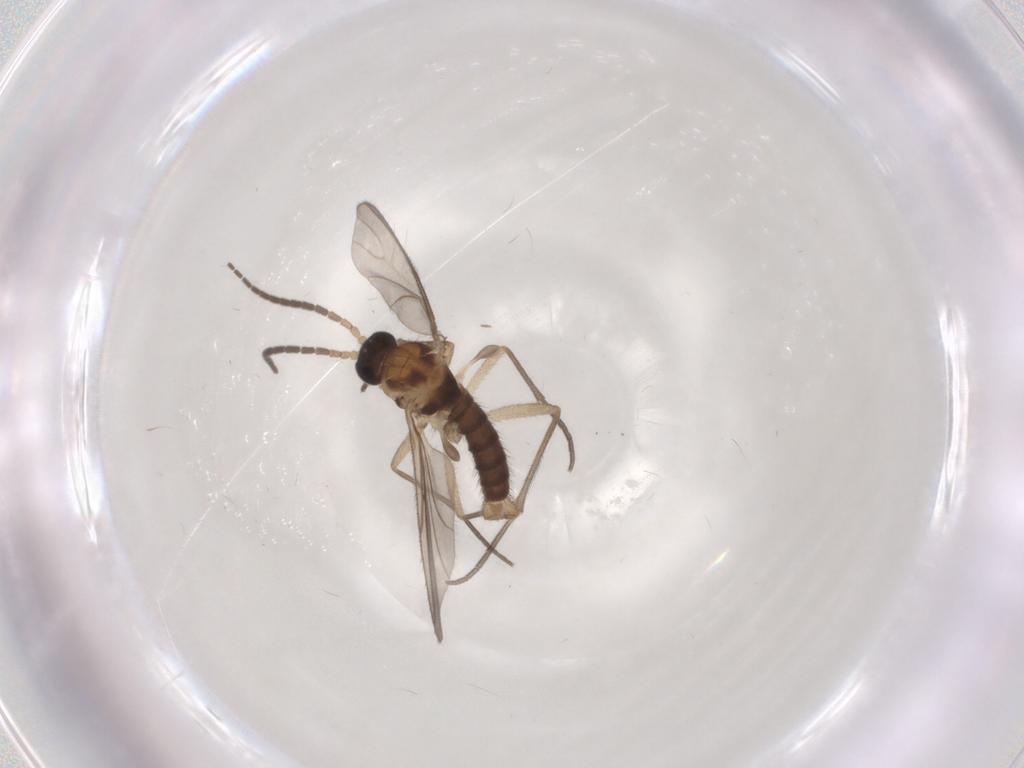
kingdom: Animalia
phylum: Arthropoda
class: Insecta
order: Diptera
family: Sciaridae
